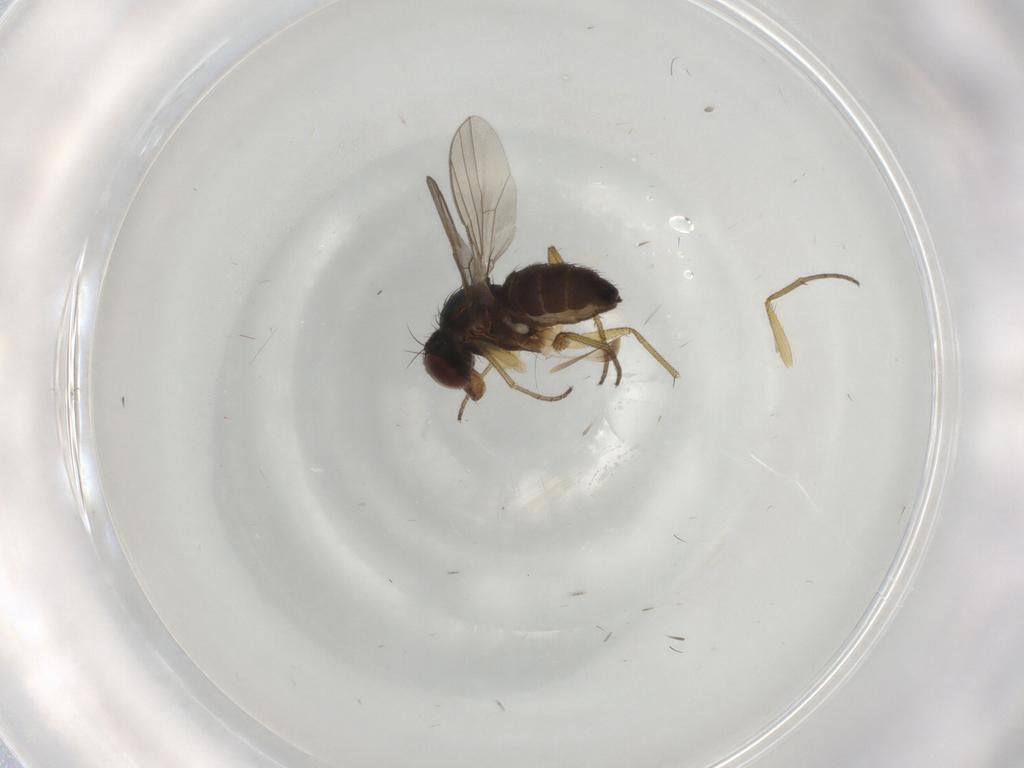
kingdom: Animalia
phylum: Arthropoda
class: Insecta
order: Diptera
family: Dolichopodidae
